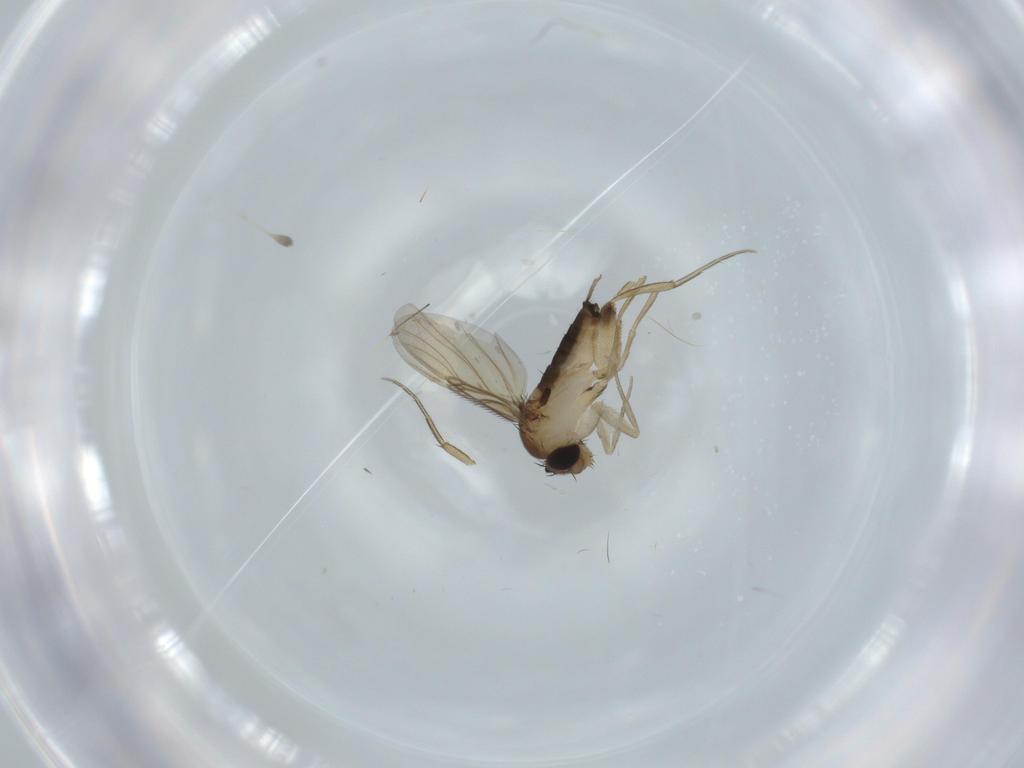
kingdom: Animalia
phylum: Arthropoda
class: Insecta
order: Diptera
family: Phoridae
